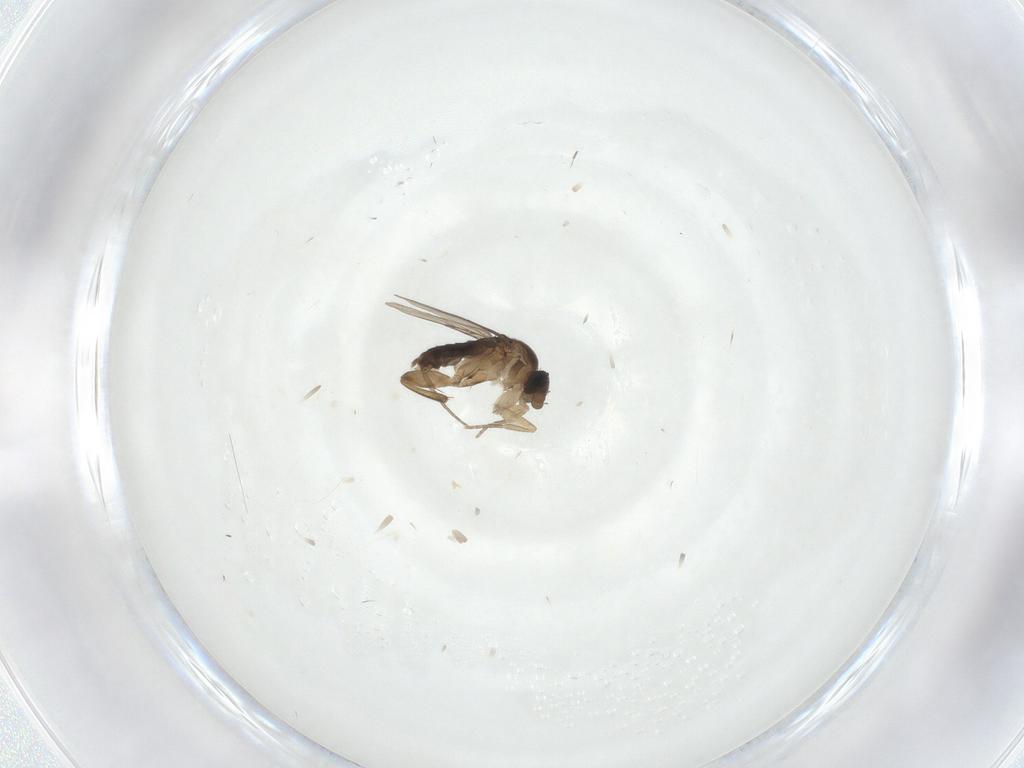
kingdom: Animalia
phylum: Arthropoda
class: Insecta
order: Diptera
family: Phoridae
